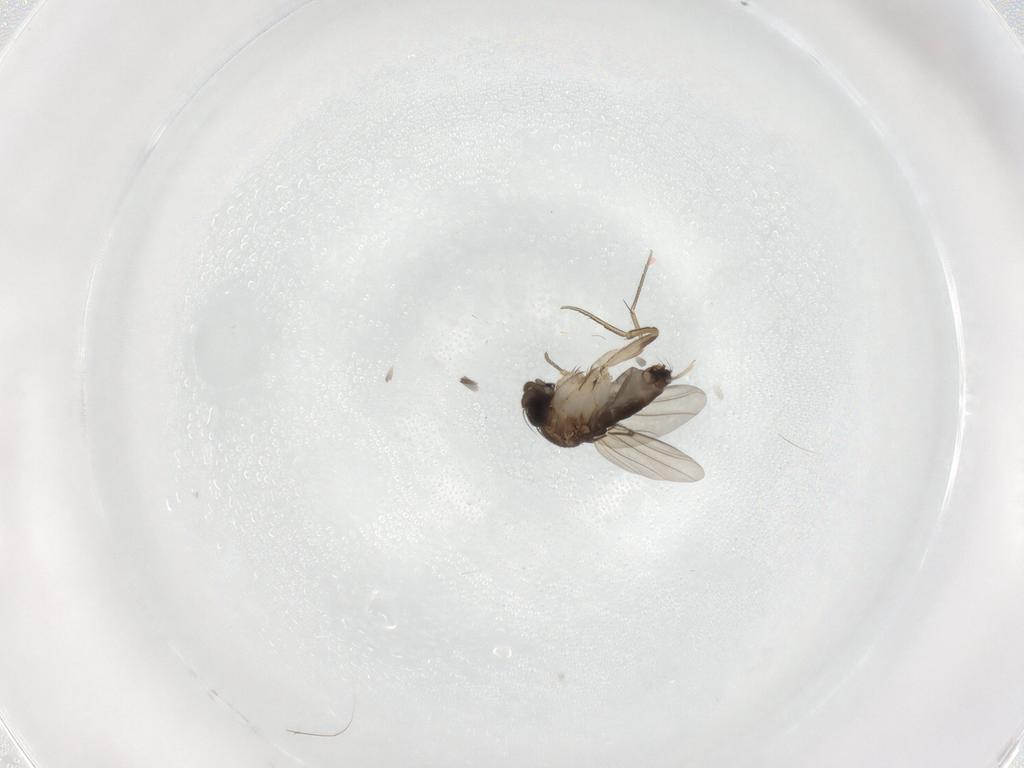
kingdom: Animalia
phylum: Arthropoda
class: Insecta
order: Diptera
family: Phoridae
